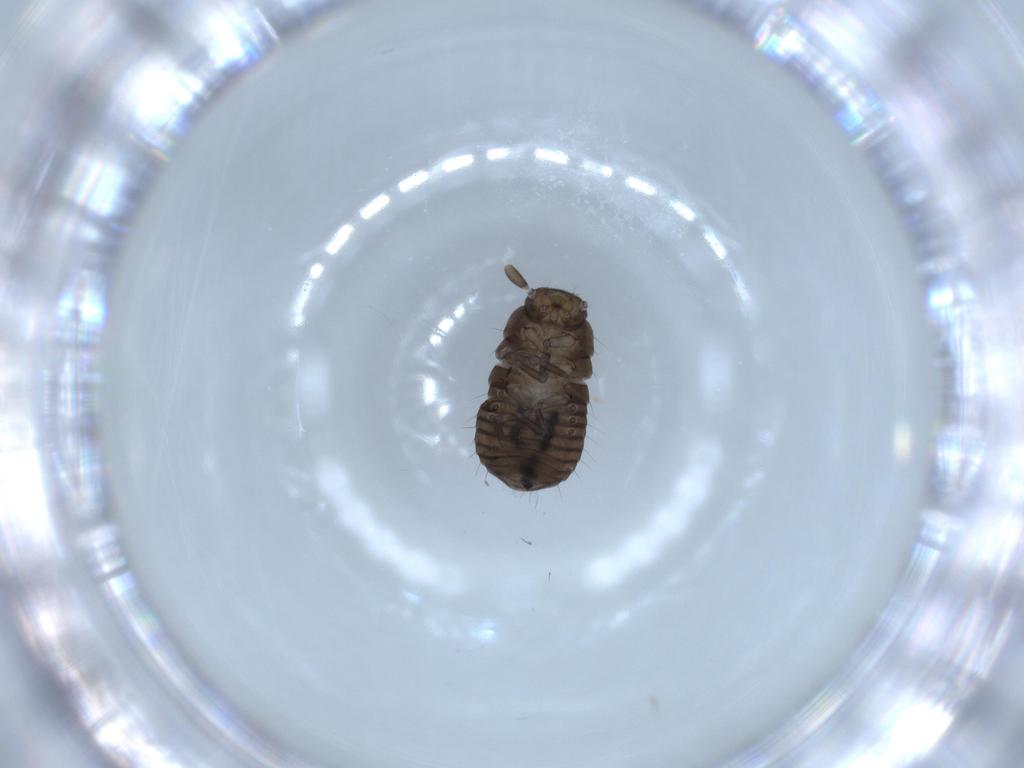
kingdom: Animalia
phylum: Arthropoda
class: Insecta
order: Coleoptera
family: Tenebrionidae
